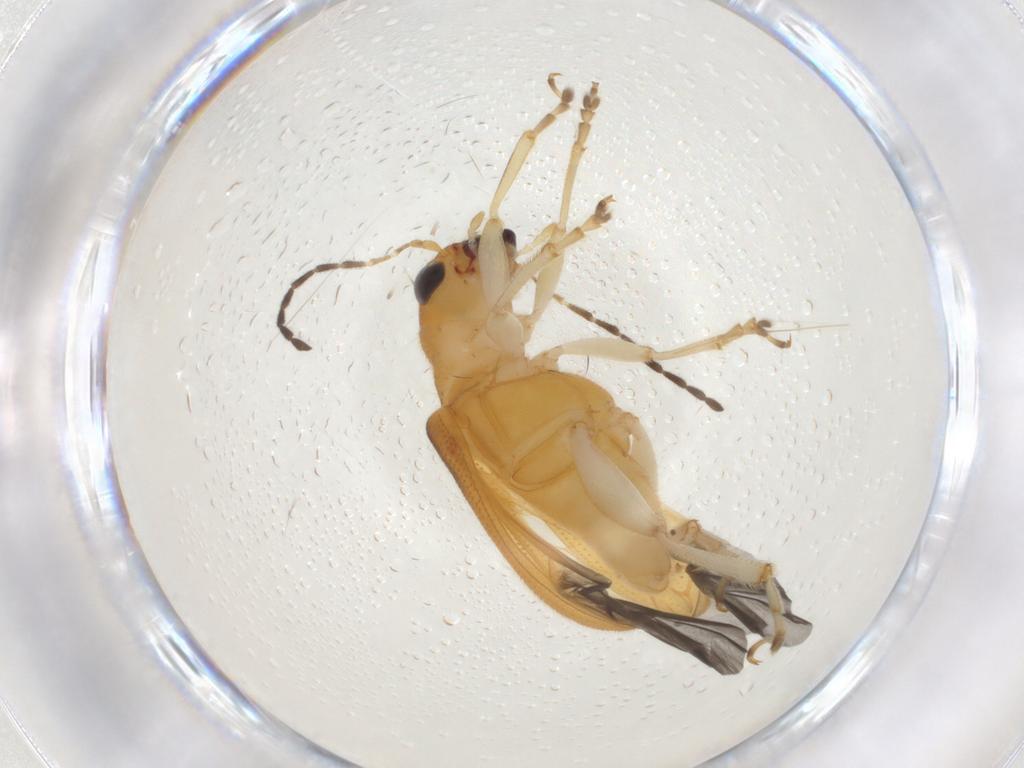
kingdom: Animalia
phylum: Arthropoda
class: Insecta
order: Coleoptera
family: Chrysomelidae
